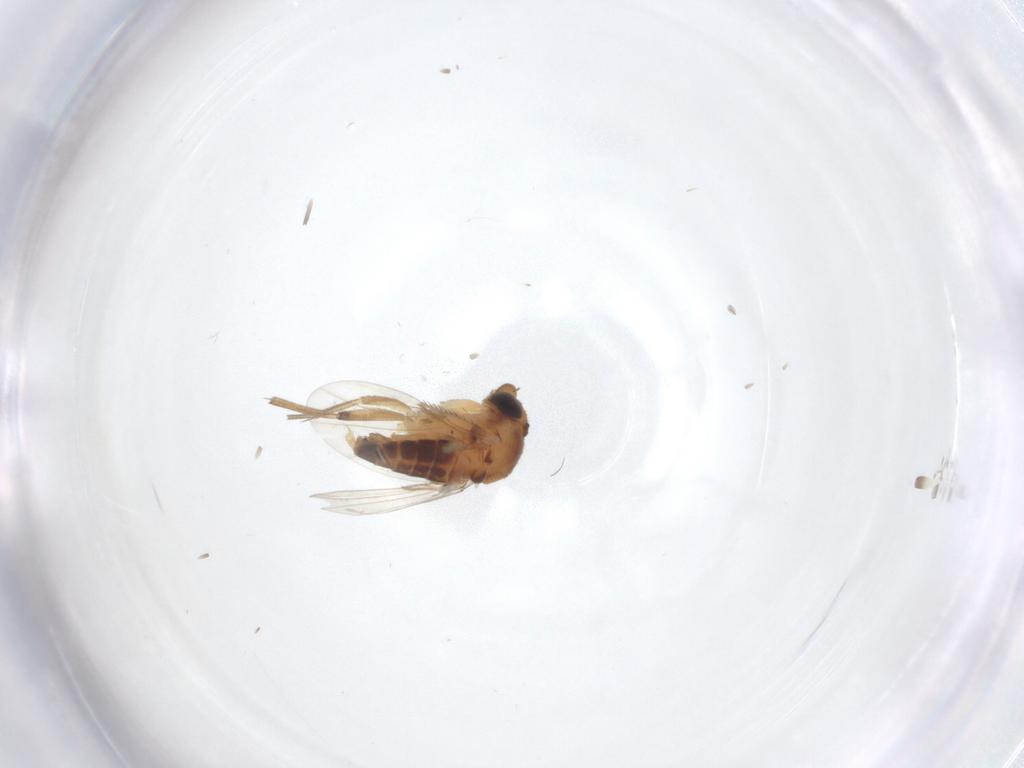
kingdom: Animalia
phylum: Arthropoda
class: Insecta
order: Diptera
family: Phoridae
